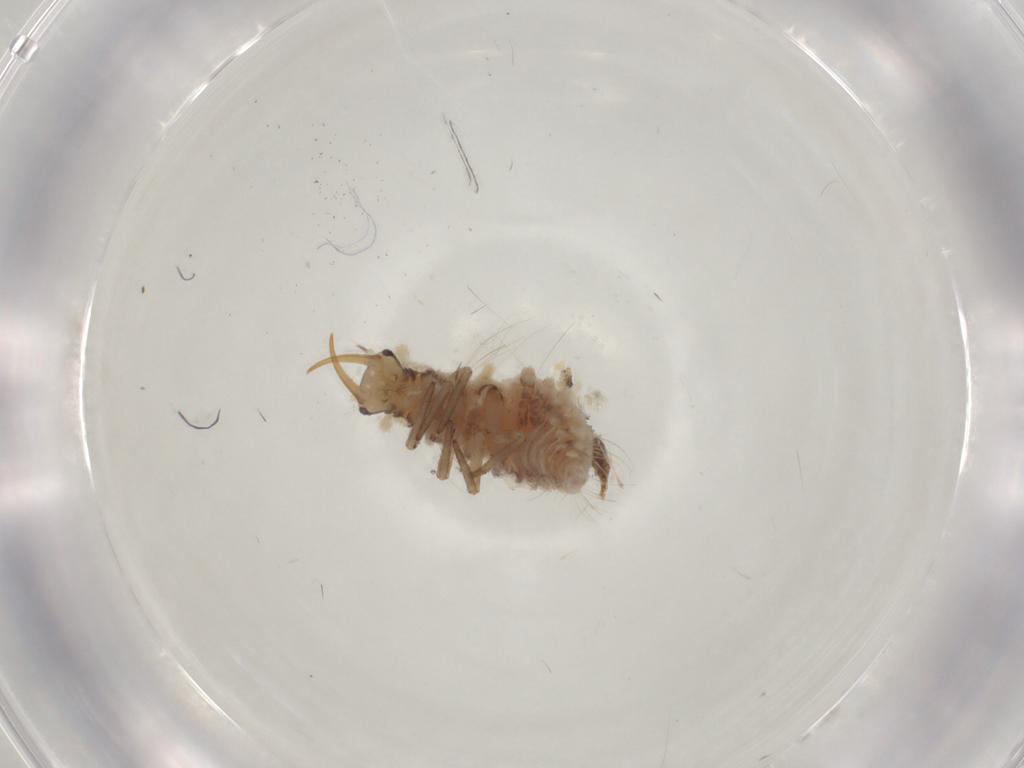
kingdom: Animalia
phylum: Arthropoda
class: Insecta
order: Neuroptera
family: Chrysopidae
